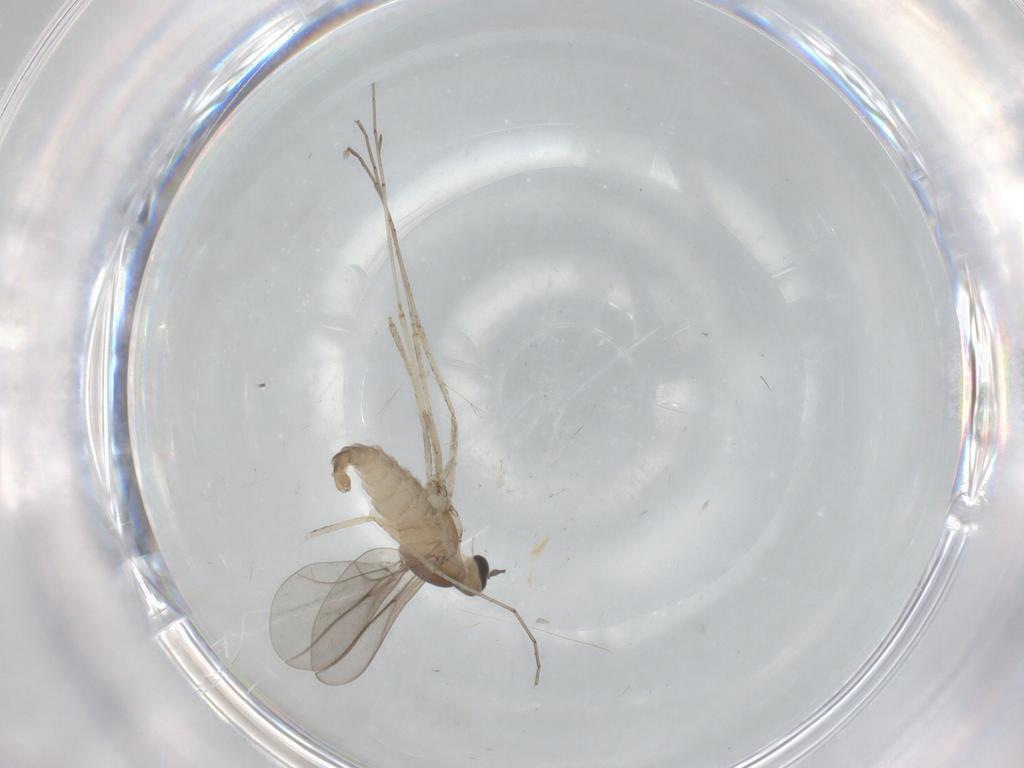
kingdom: Animalia
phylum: Arthropoda
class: Insecta
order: Diptera
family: Cecidomyiidae
